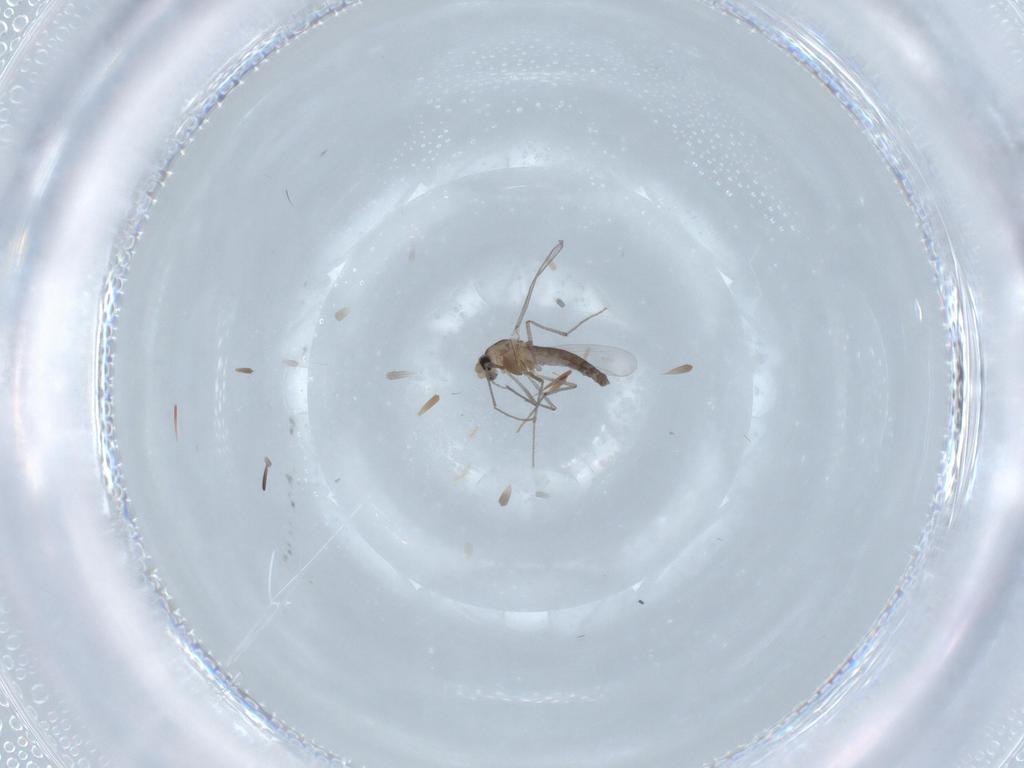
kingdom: Animalia
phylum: Arthropoda
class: Insecta
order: Diptera
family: Chironomidae
